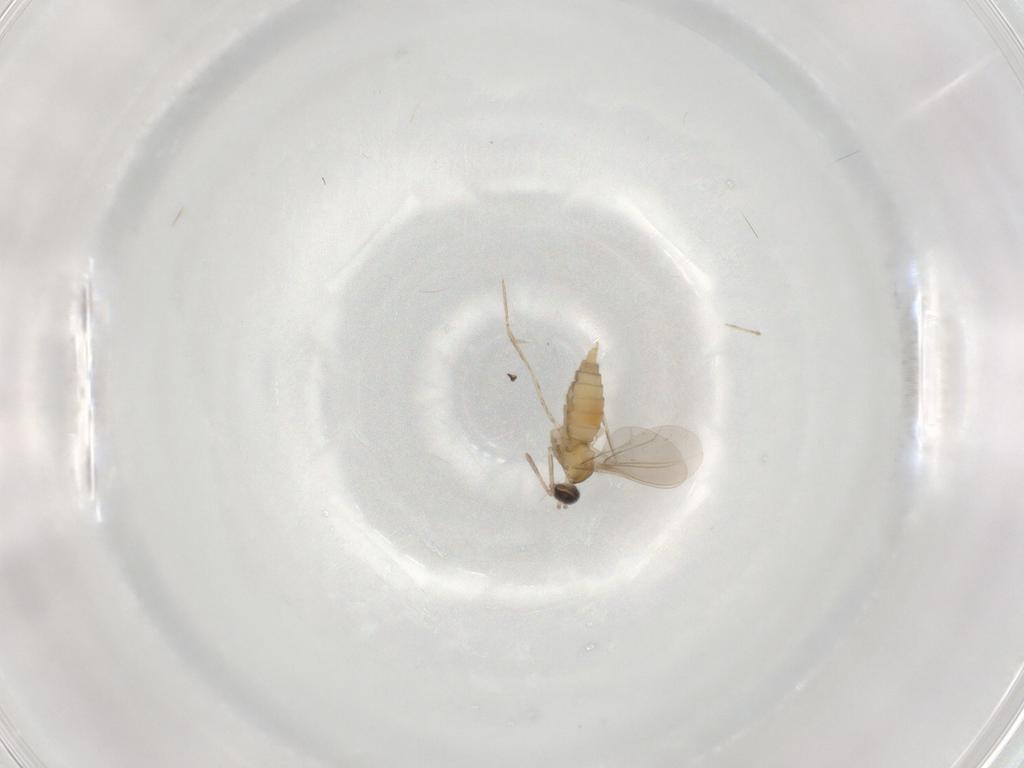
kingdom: Animalia
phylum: Arthropoda
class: Insecta
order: Diptera
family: Cecidomyiidae
